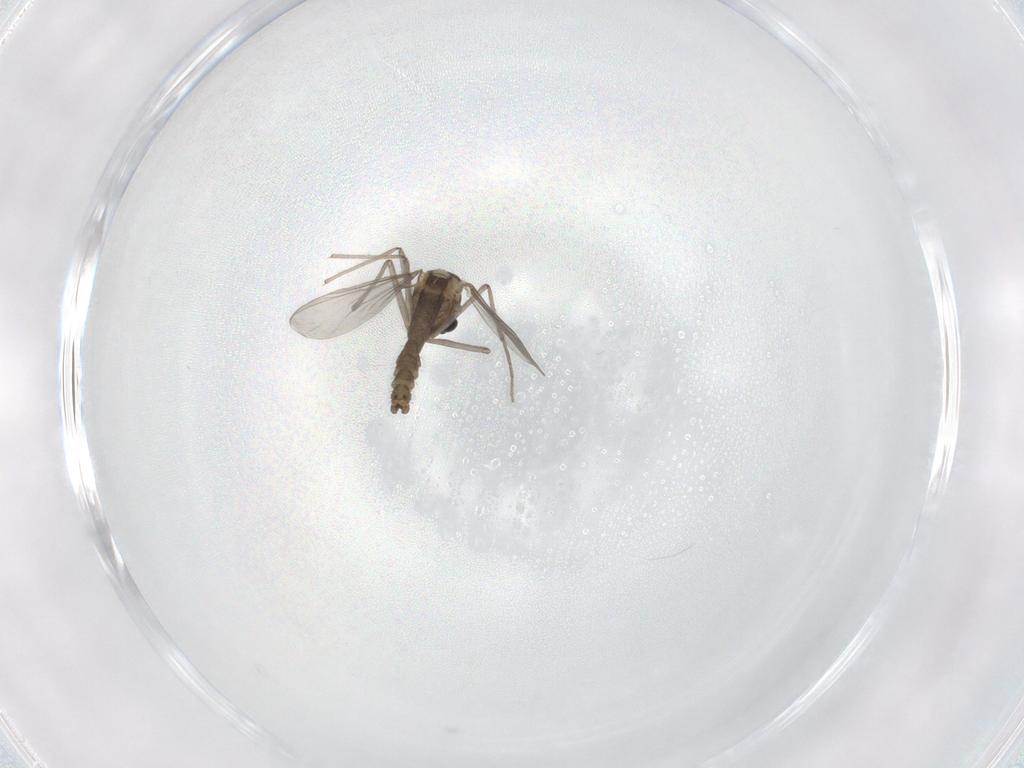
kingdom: Animalia
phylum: Arthropoda
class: Insecta
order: Diptera
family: Chironomidae
